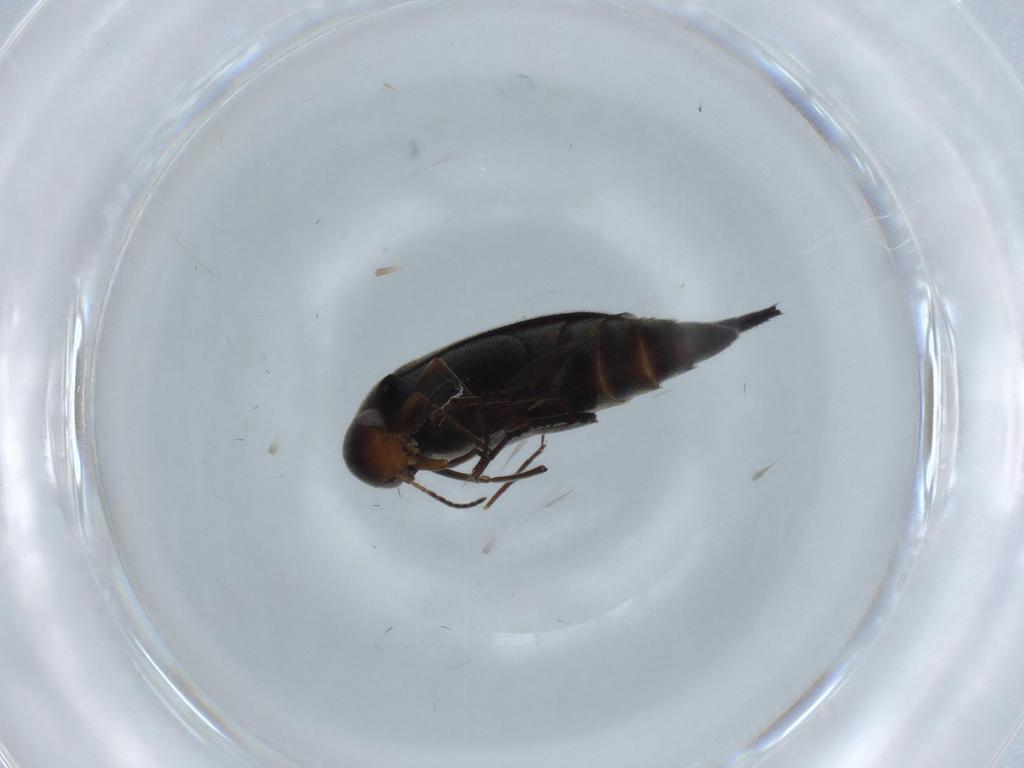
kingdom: Animalia
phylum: Arthropoda
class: Insecta
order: Coleoptera
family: Mordellidae
